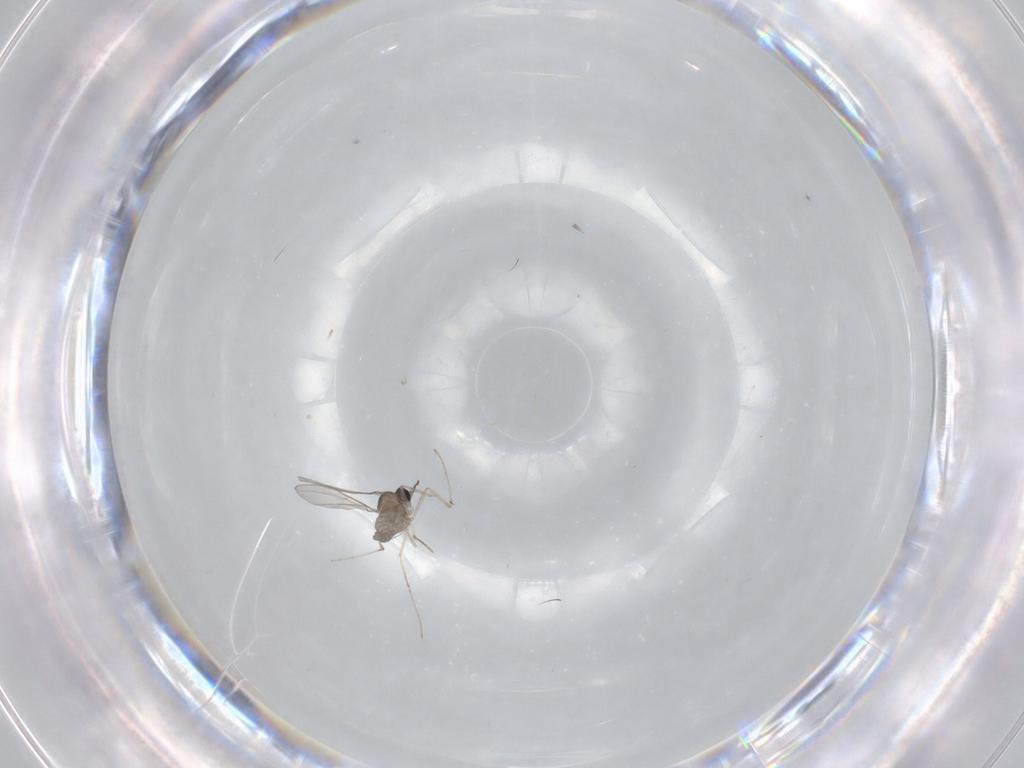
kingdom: Animalia
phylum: Arthropoda
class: Insecta
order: Diptera
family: Cecidomyiidae
